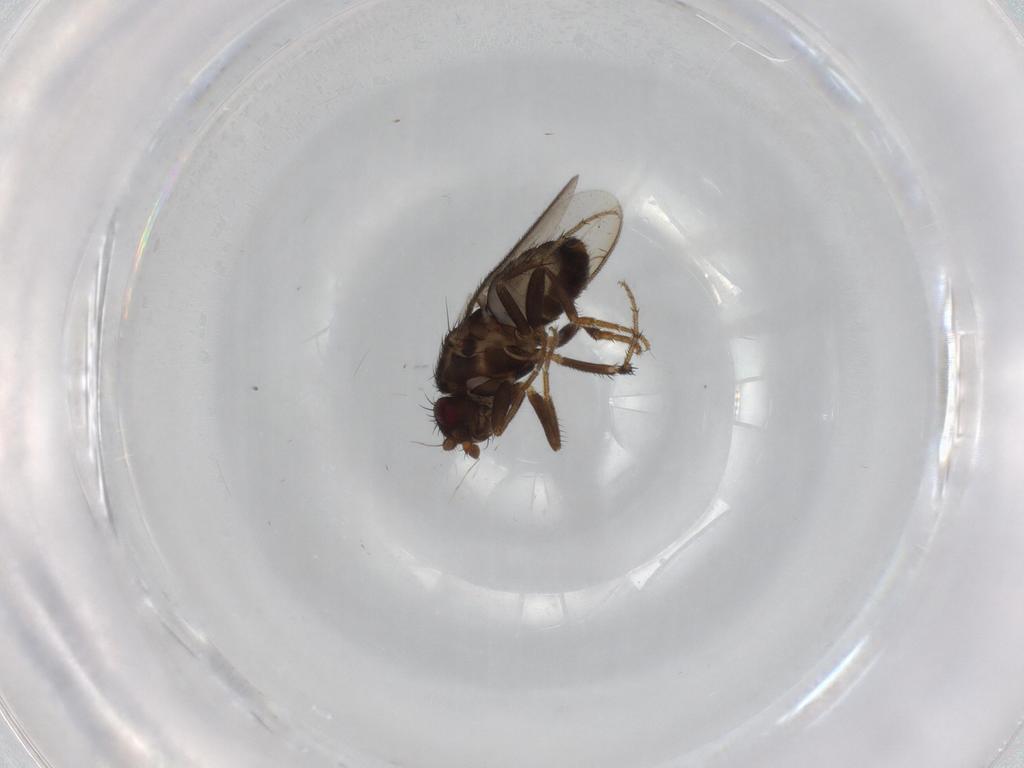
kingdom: Animalia
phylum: Arthropoda
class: Insecta
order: Diptera
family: Sphaeroceridae
